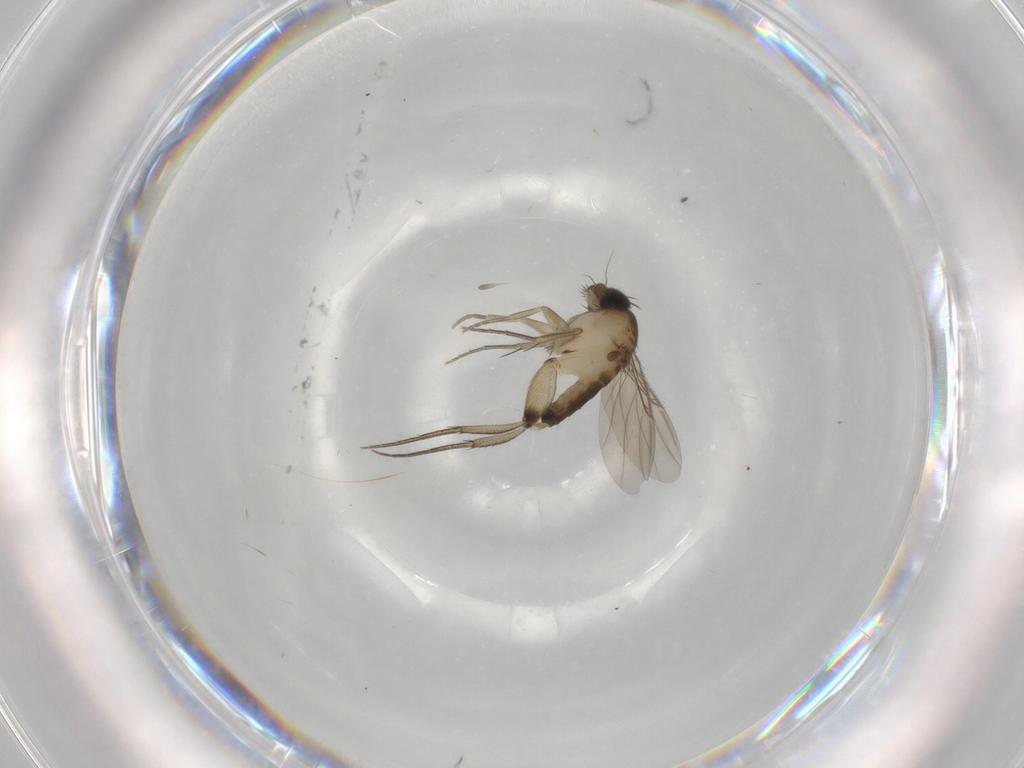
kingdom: Animalia
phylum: Arthropoda
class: Insecta
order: Diptera
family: Phoridae
